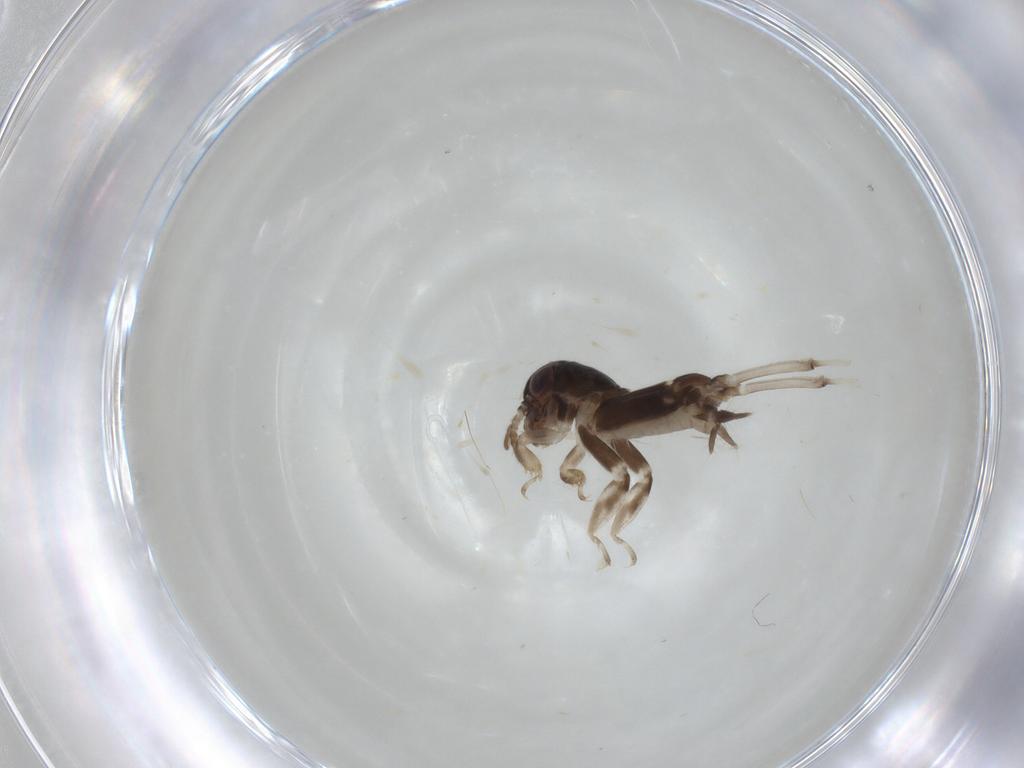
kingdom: Animalia
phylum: Arthropoda
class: Insecta
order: Orthoptera
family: Tridactylidae
